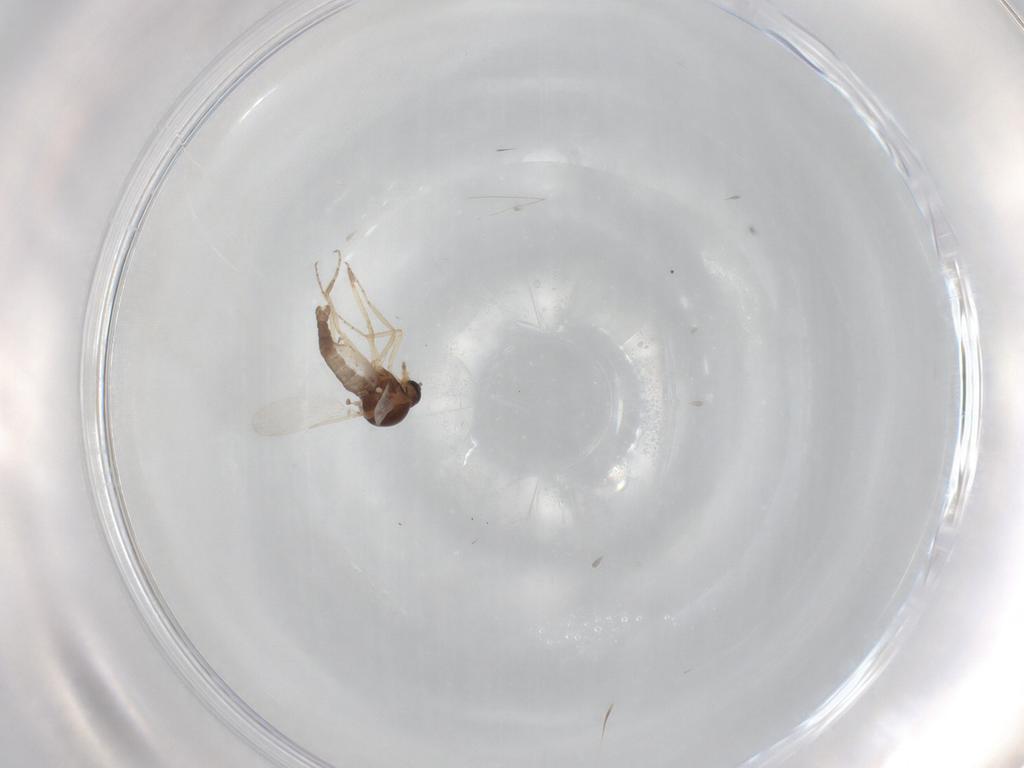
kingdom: Animalia
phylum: Arthropoda
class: Insecta
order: Diptera
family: Ceratopogonidae
